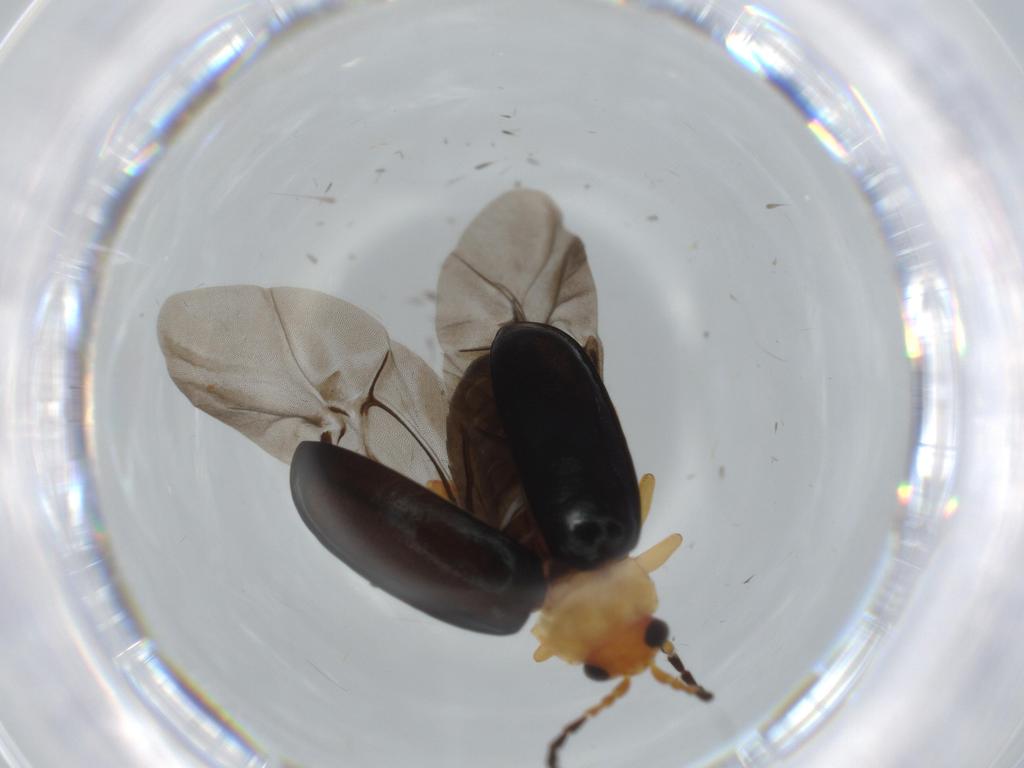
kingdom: Animalia
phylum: Arthropoda
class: Insecta
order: Coleoptera
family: Chrysomelidae
